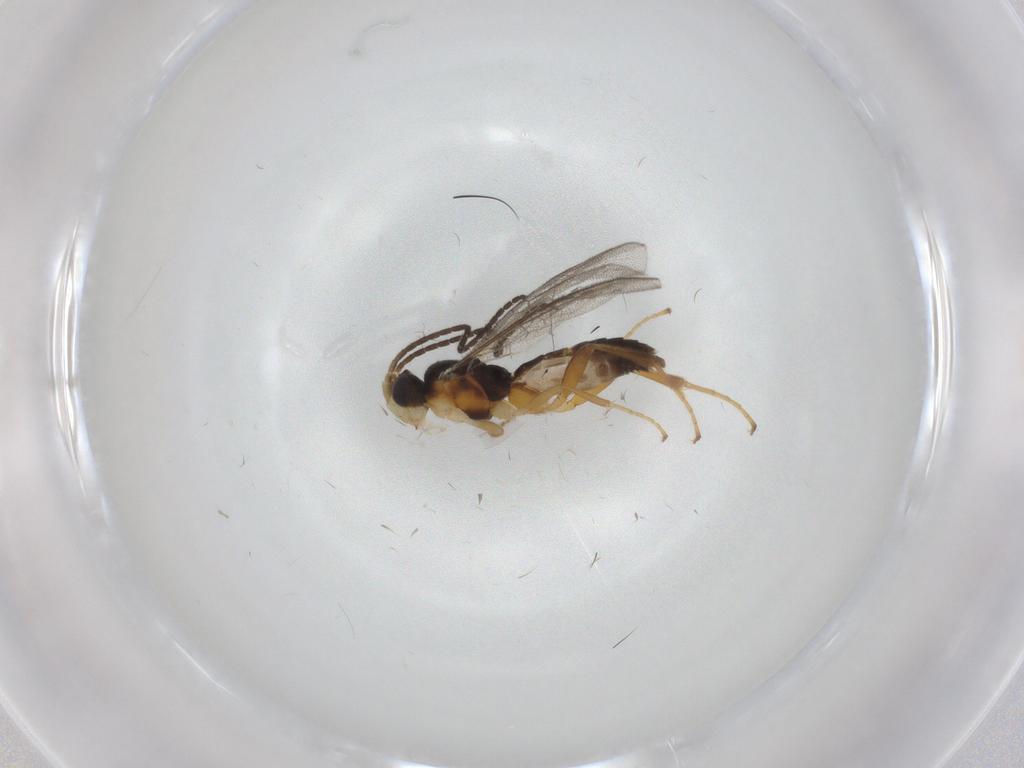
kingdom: Animalia
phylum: Arthropoda
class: Insecta
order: Hymenoptera
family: Ichneumonidae
